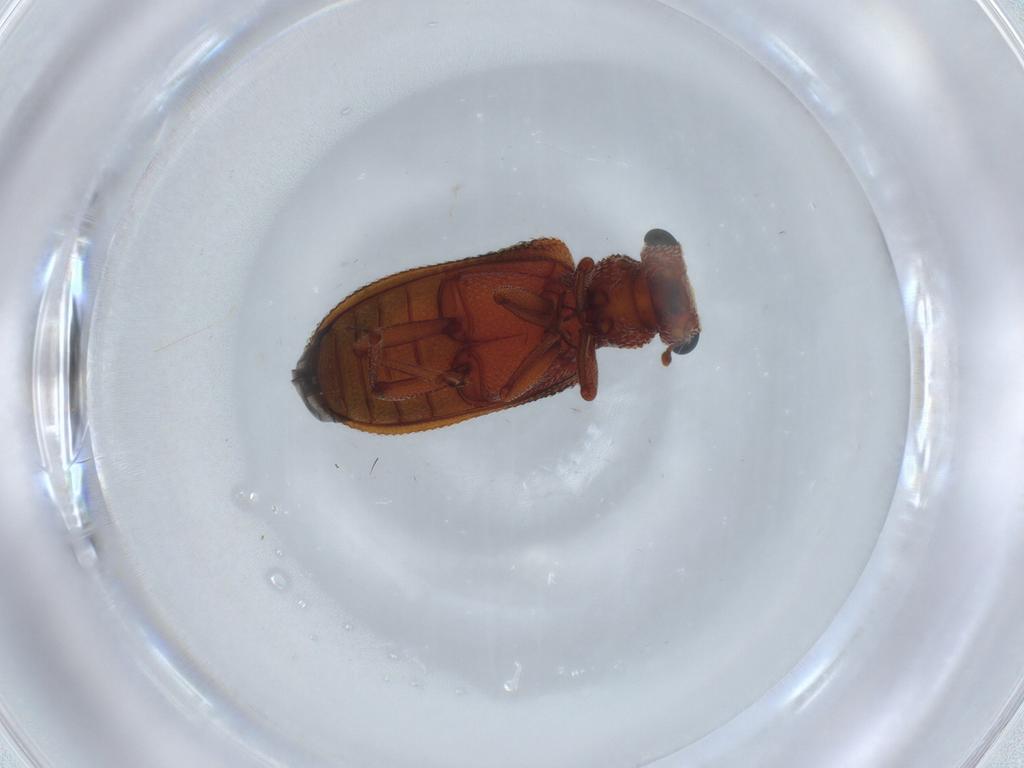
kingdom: Animalia
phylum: Arthropoda
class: Insecta
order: Coleoptera
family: Zopheridae
